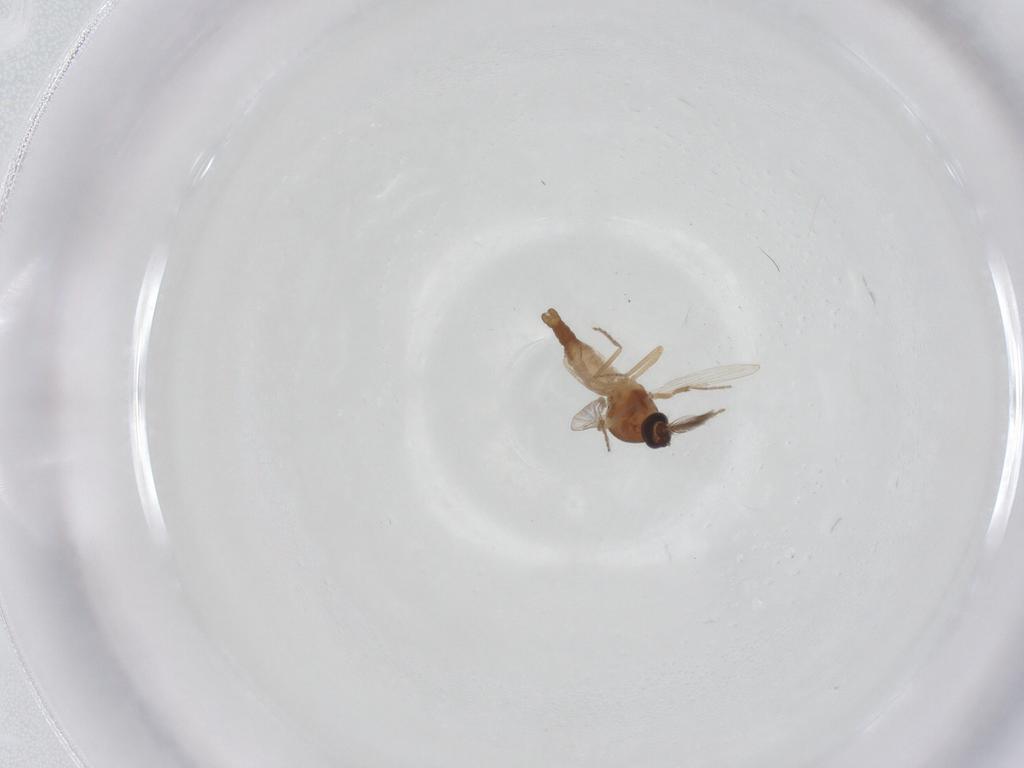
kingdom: Animalia
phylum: Arthropoda
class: Insecta
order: Diptera
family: Ceratopogonidae
